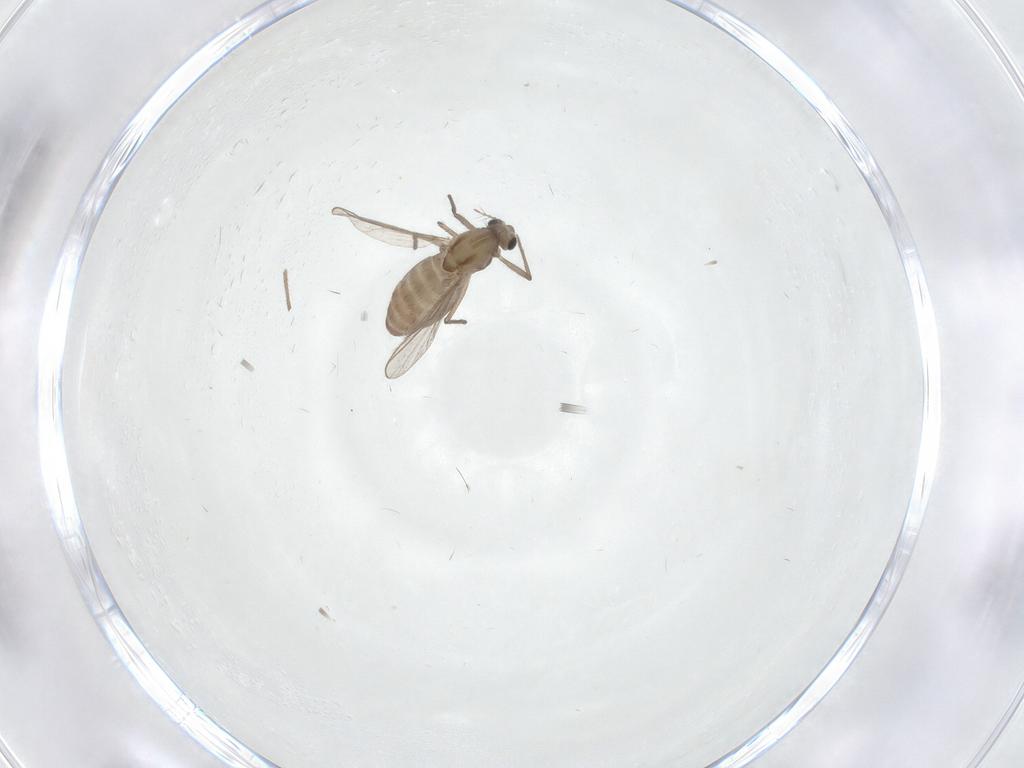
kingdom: Animalia
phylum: Arthropoda
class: Insecta
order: Diptera
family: Chironomidae
